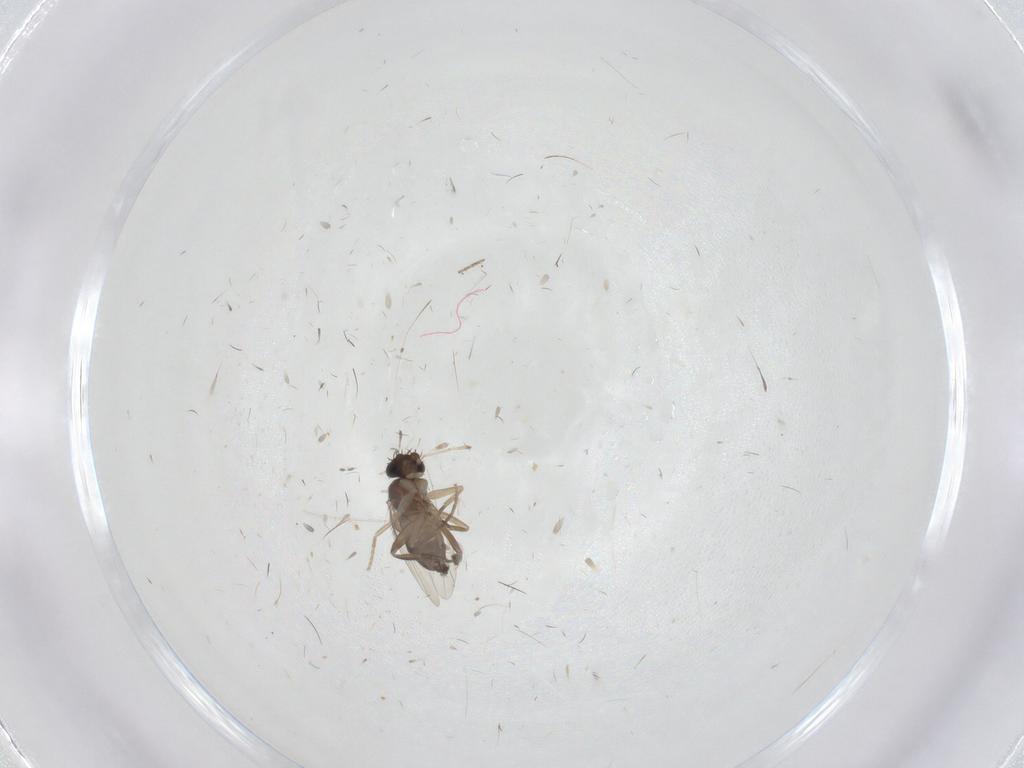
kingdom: Animalia
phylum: Arthropoda
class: Insecta
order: Diptera
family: Phoridae
